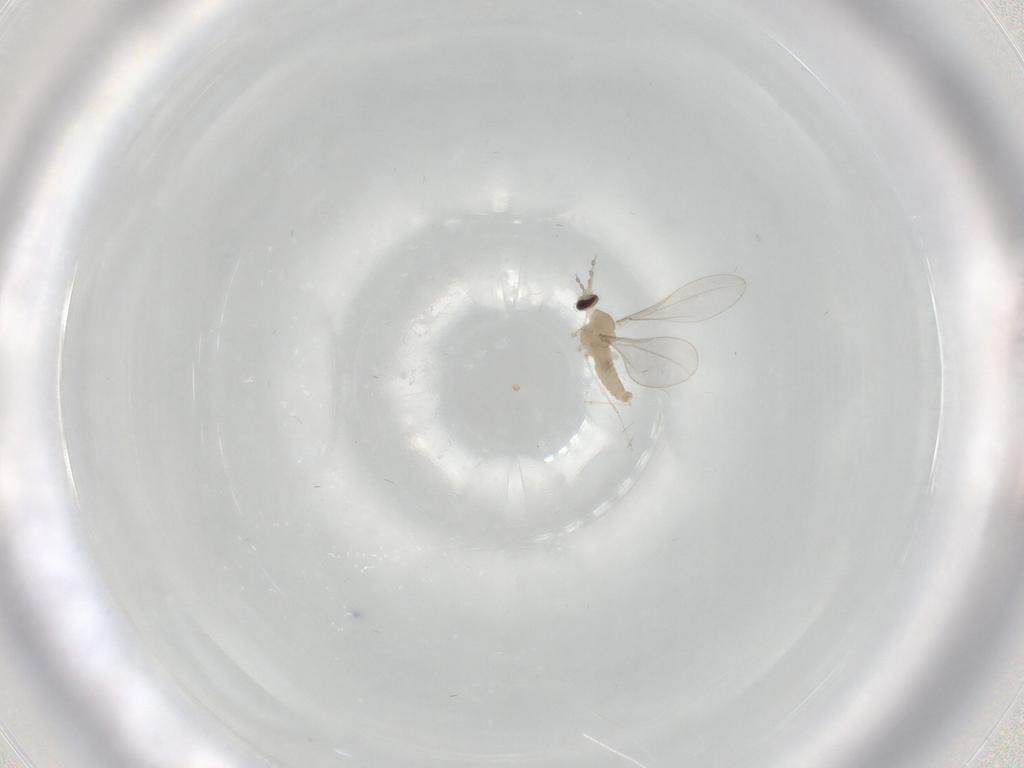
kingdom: Animalia
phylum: Arthropoda
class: Insecta
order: Diptera
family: Cecidomyiidae
